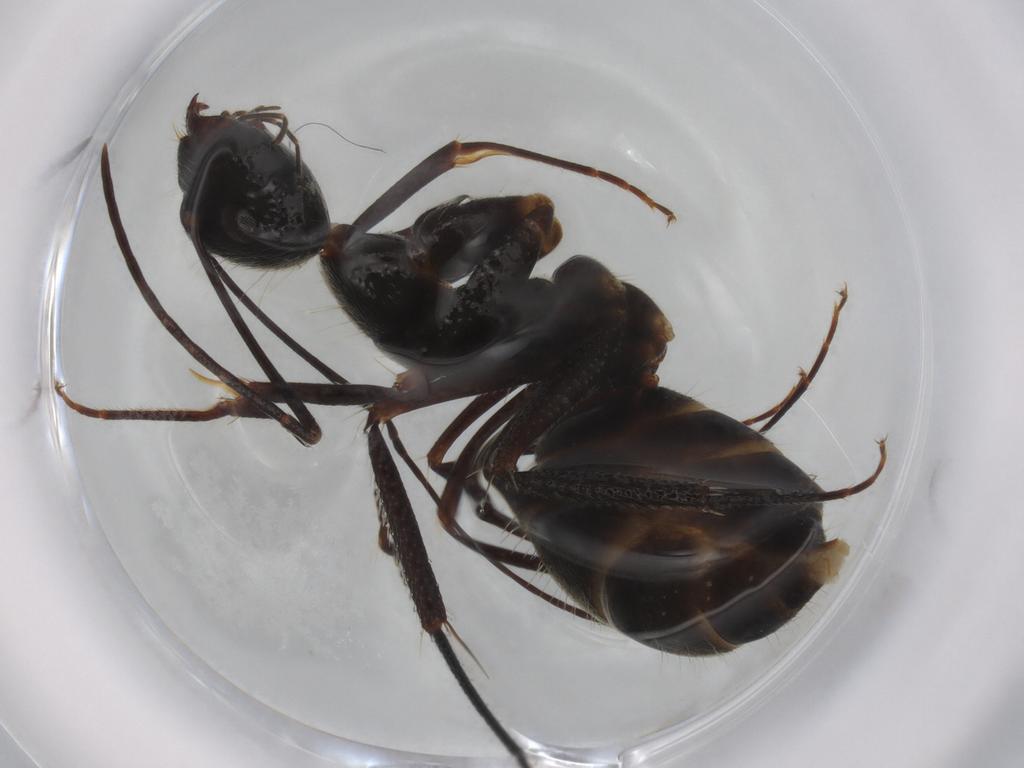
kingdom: Animalia
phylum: Arthropoda
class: Insecta
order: Hymenoptera
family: Formicidae
